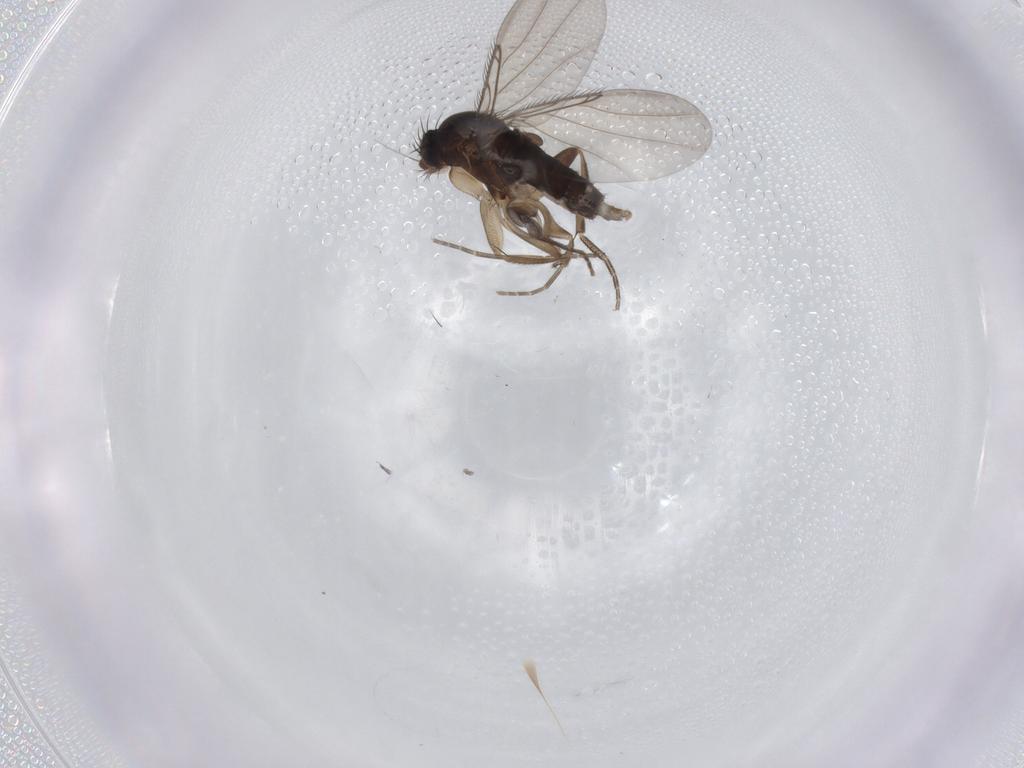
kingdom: Animalia
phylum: Arthropoda
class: Insecta
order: Diptera
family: Phoridae
